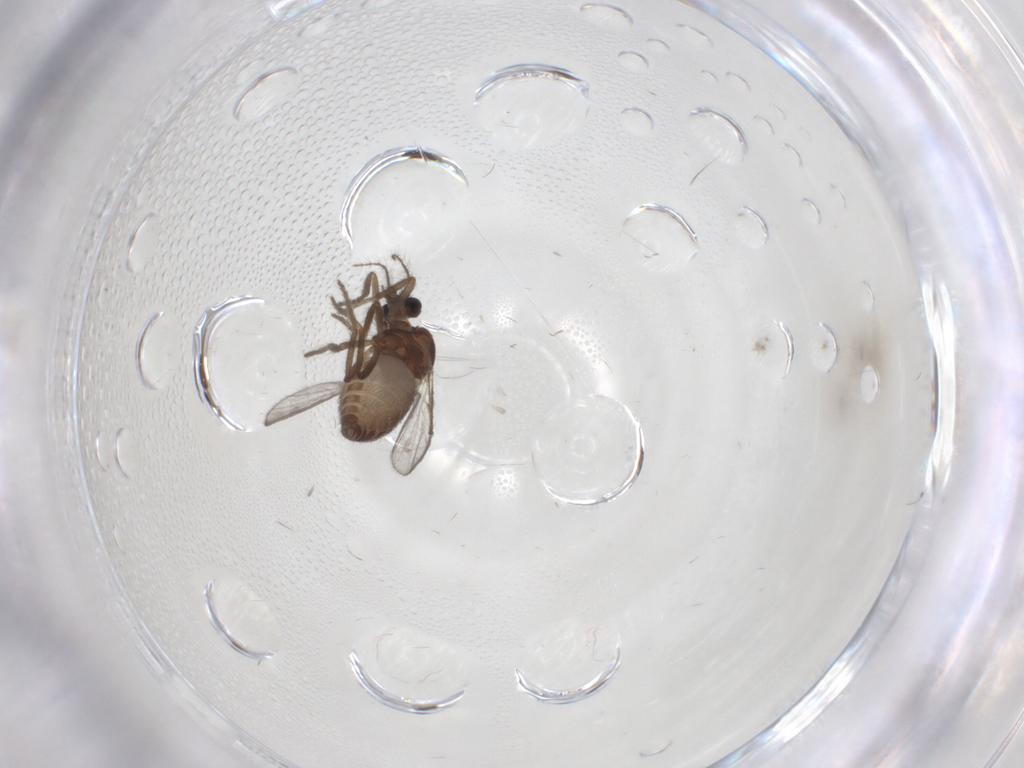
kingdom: Animalia
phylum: Arthropoda
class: Insecta
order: Diptera
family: Ceratopogonidae
